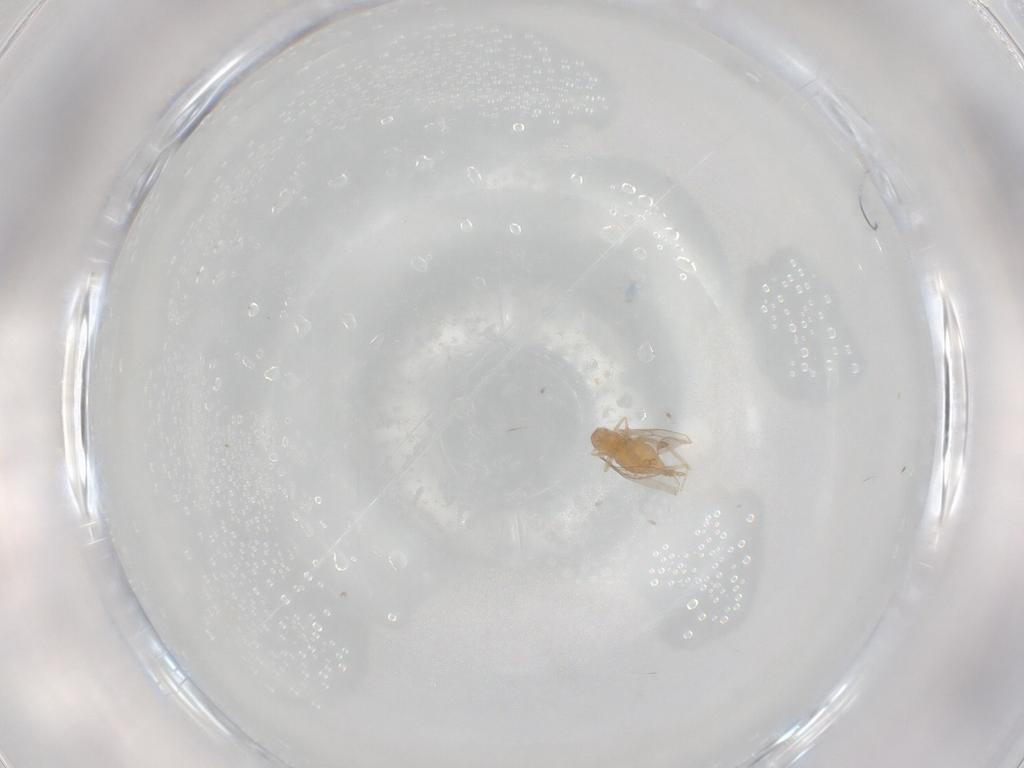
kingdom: Animalia
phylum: Arthropoda
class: Insecta
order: Diptera
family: Cecidomyiidae
